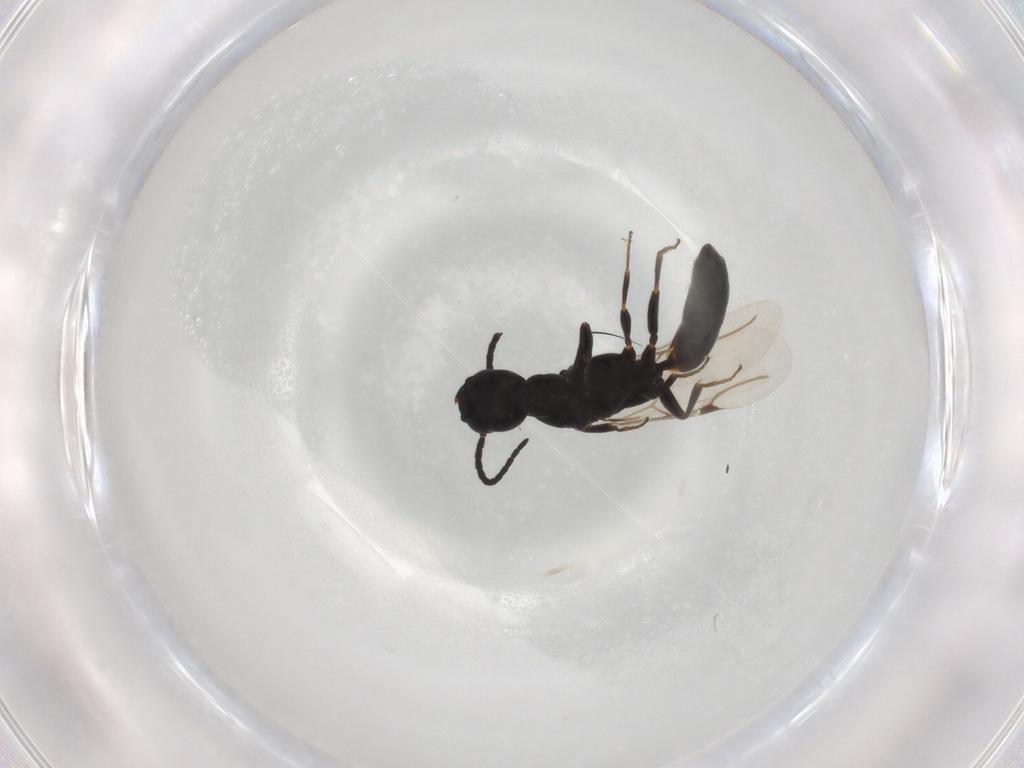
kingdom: Animalia
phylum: Arthropoda
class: Insecta
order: Hymenoptera
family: Bethylidae
